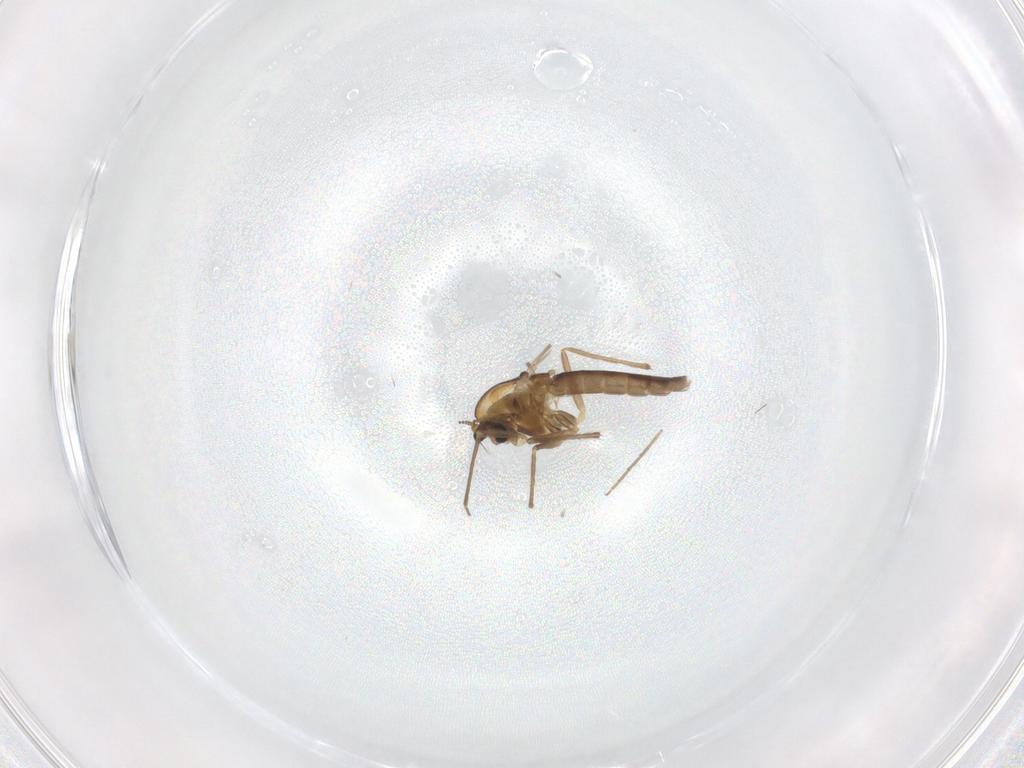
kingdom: Animalia
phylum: Arthropoda
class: Insecta
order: Diptera
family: Chironomidae
